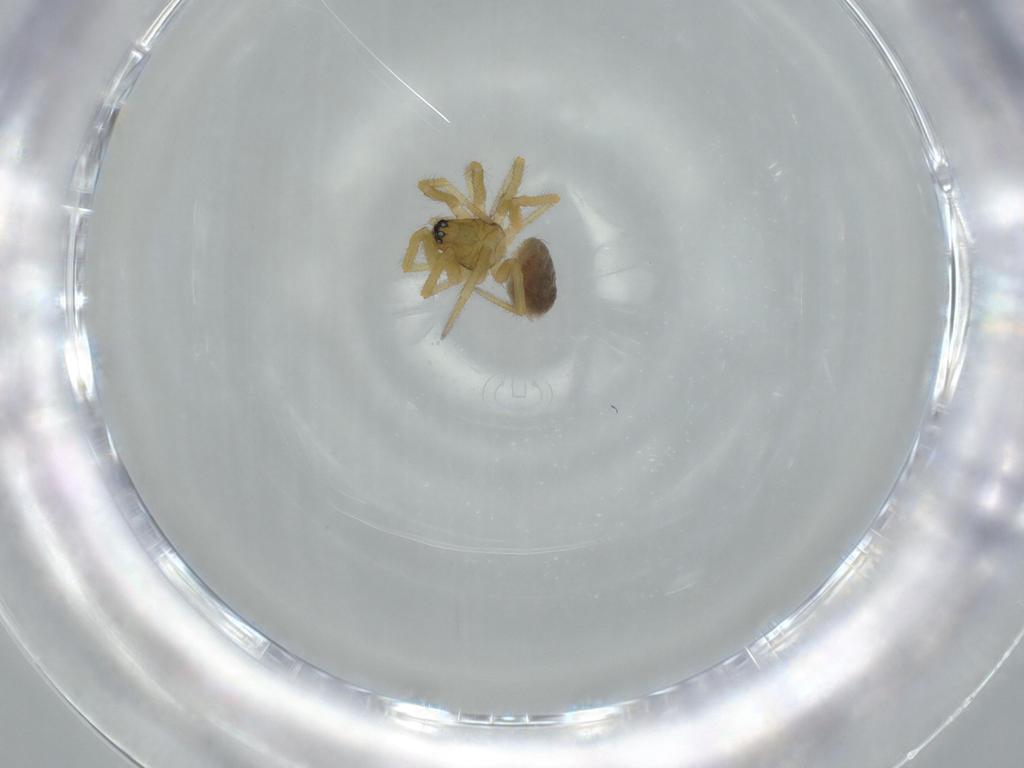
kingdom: Animalia
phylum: Arthropoda
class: Arachnida
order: Araneae
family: Linyphiidae
